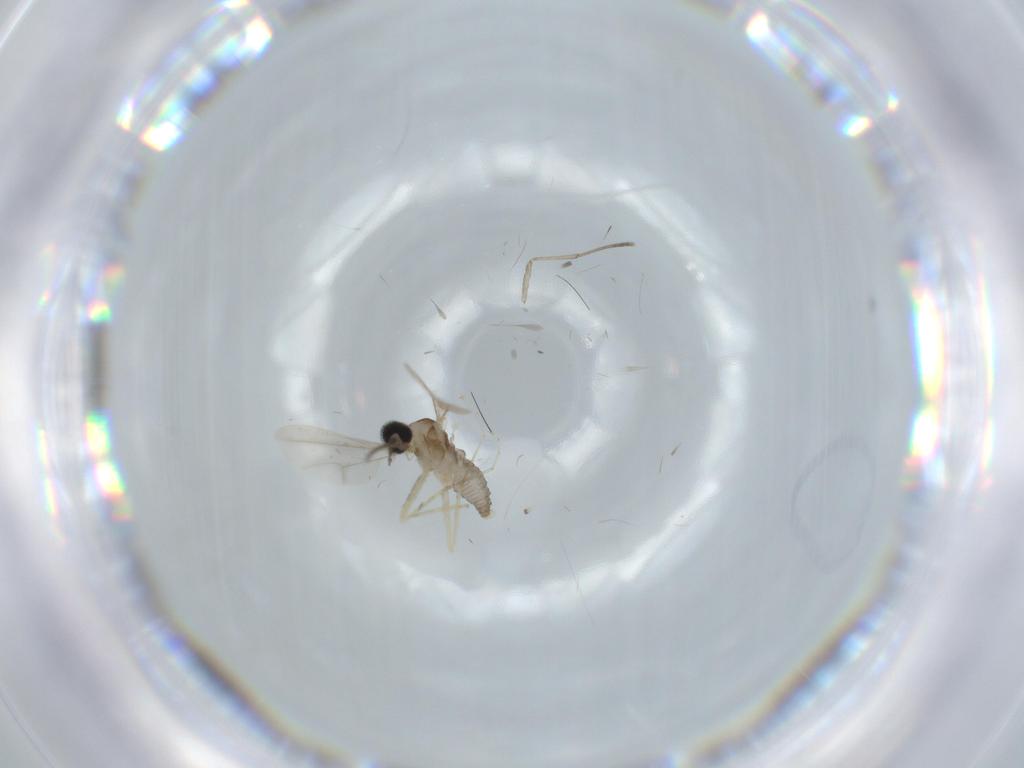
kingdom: Animalia
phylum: Arthropoda
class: Insecta
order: Diptera
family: Cecidomyiidae
